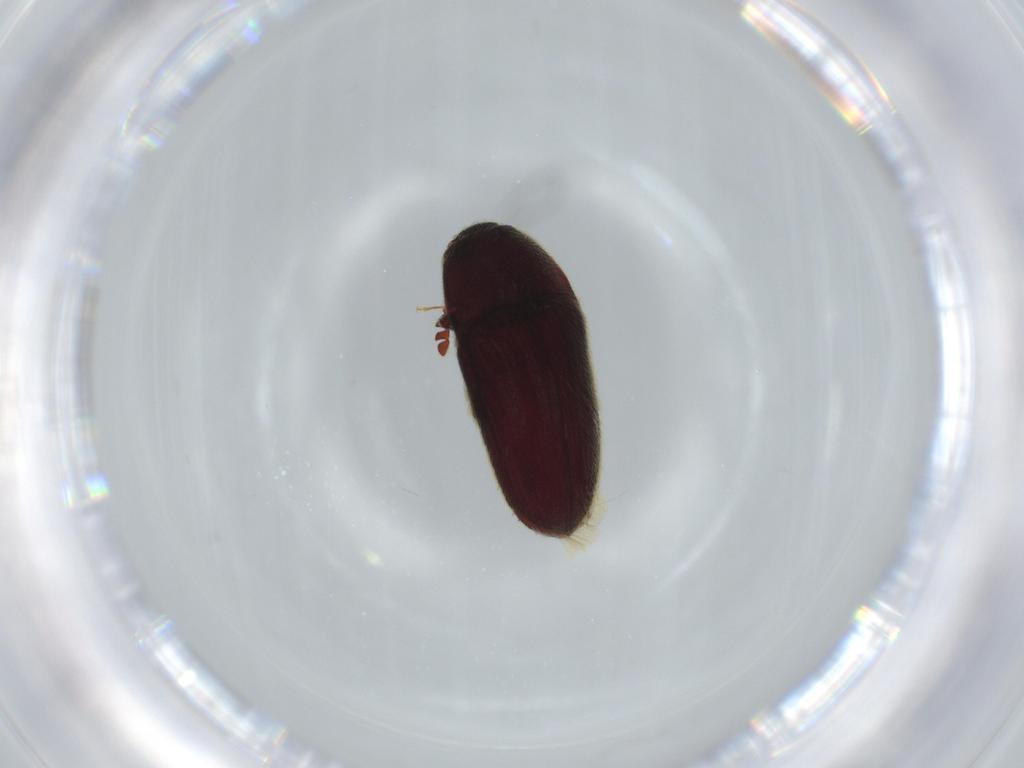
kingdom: Animalia
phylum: Arthropoda
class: Insecta
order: Coleoptera
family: Throscidae
